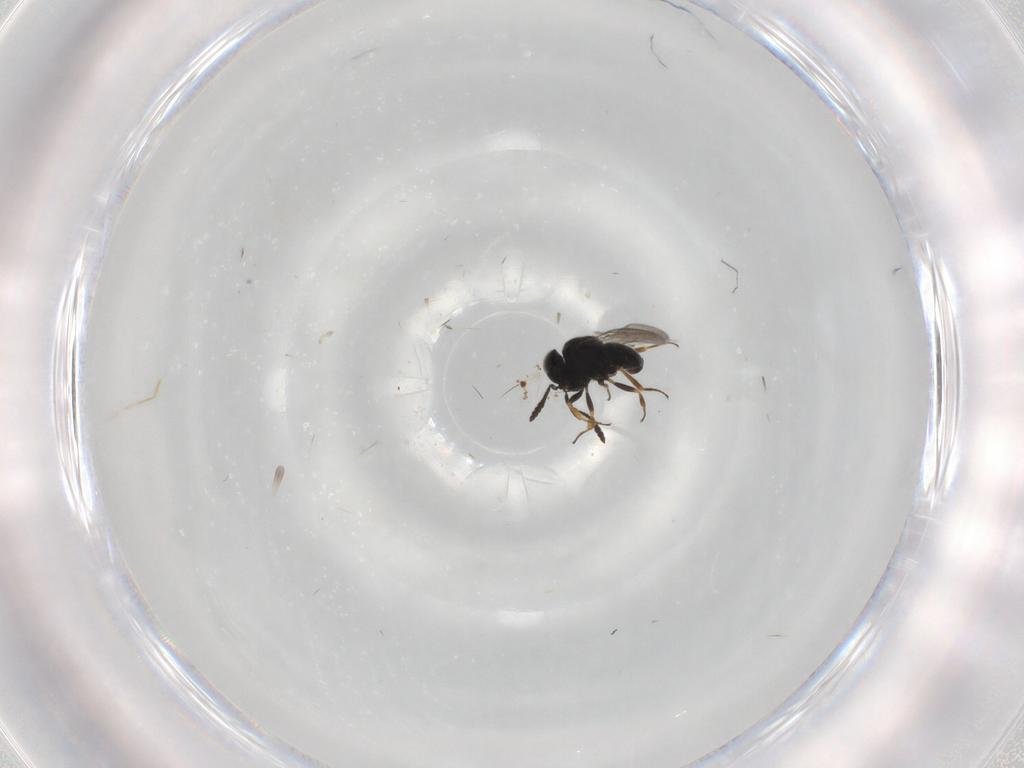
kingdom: Animalia
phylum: Arthropoda
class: Insecta
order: Hymenoptera
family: Scelionidae
